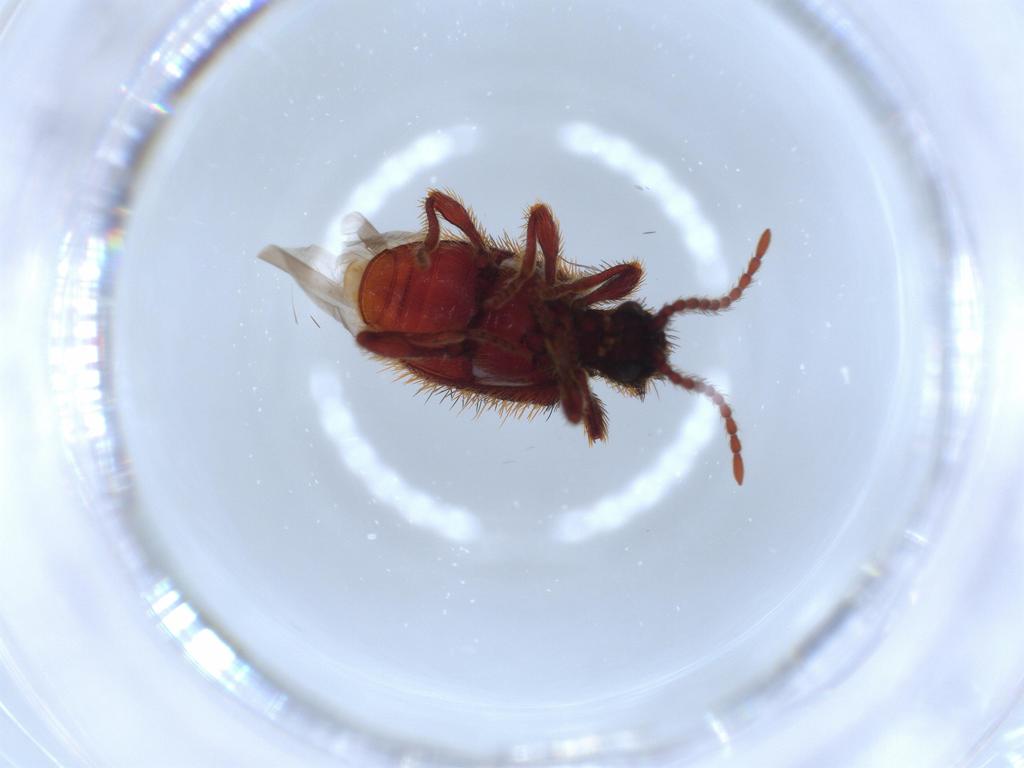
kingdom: Animalia
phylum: Arthropoda
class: Insecta
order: Coleoptera
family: Ptinidae
